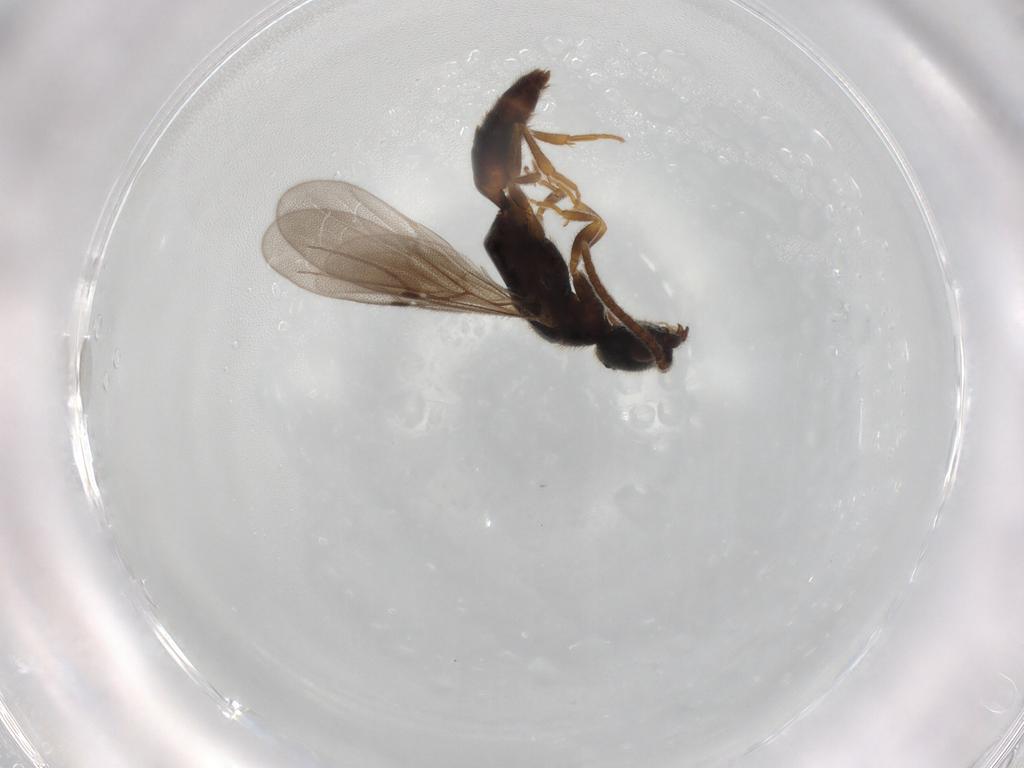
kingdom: Animalia
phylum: Arthropoda
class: Insecta
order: Hymenoptera
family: Bethylidae
